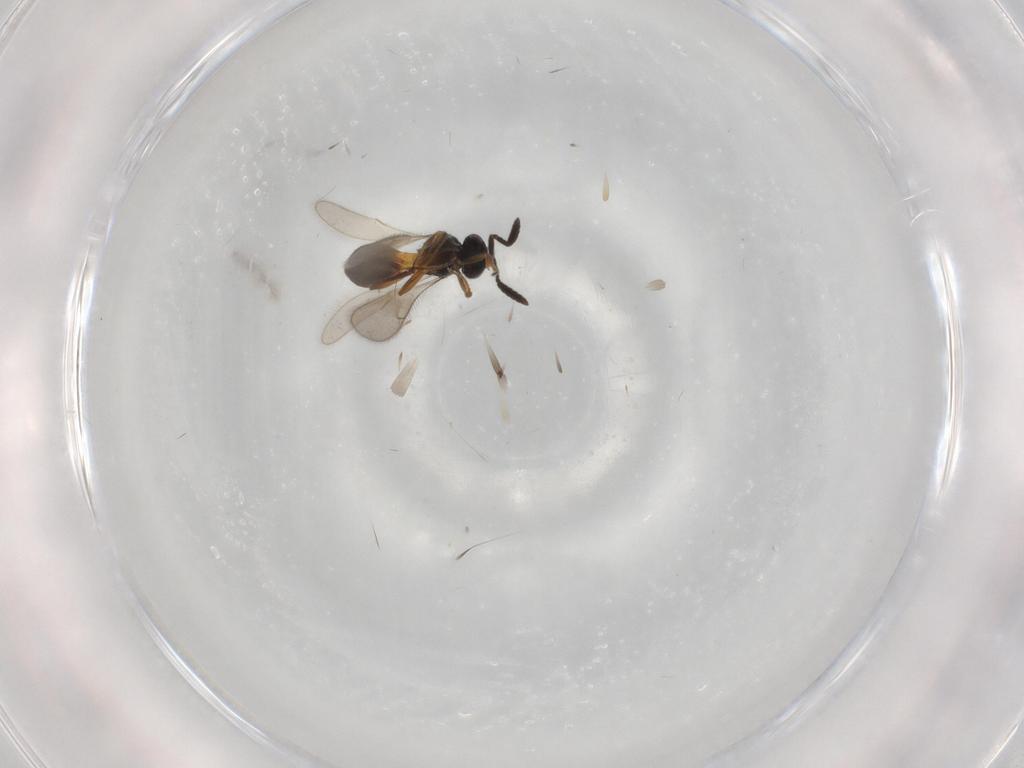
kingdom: Animalia
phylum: Arthropoda
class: Insecta
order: Hymenoptera
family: Scelionidae
